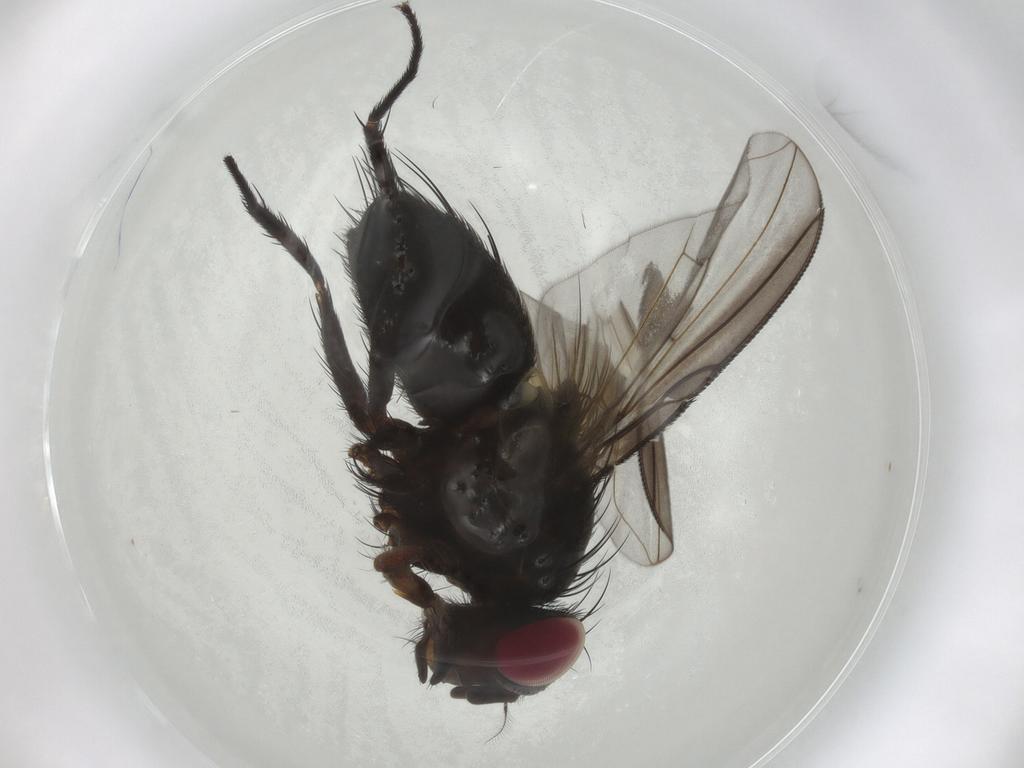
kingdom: Animalia
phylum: Arthropoda
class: Insecta
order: Diptera
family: Tachinidae
